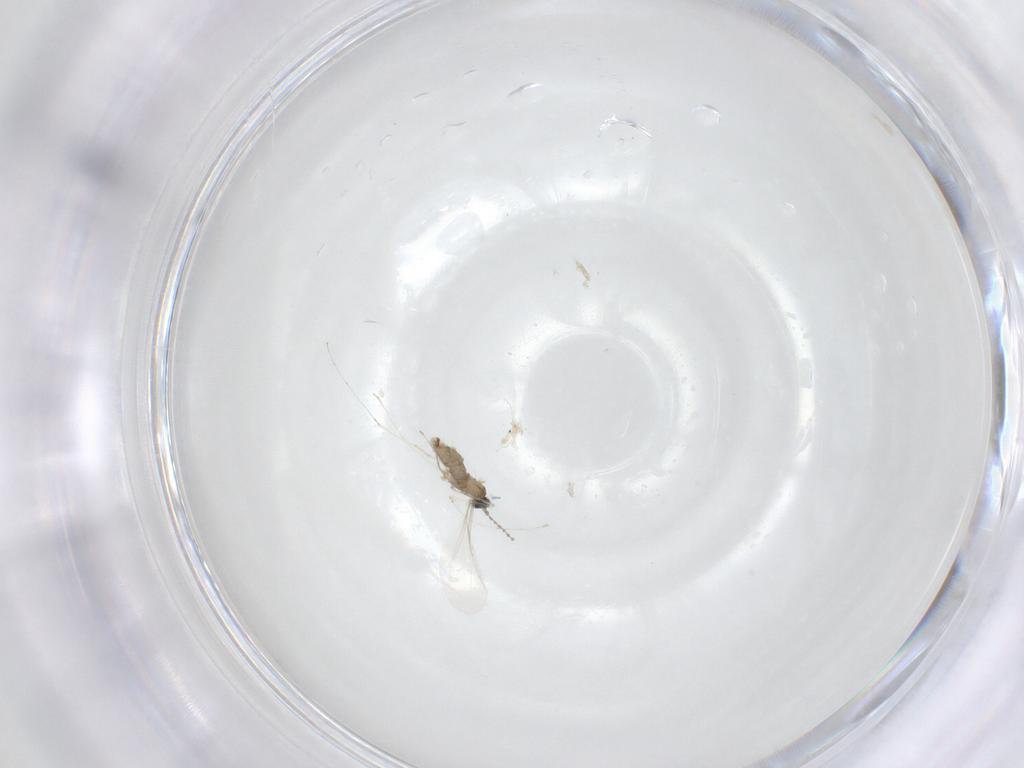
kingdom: Animalia
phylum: Arthropoda
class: Insecta
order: Diptera
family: Cecidomyiidae
